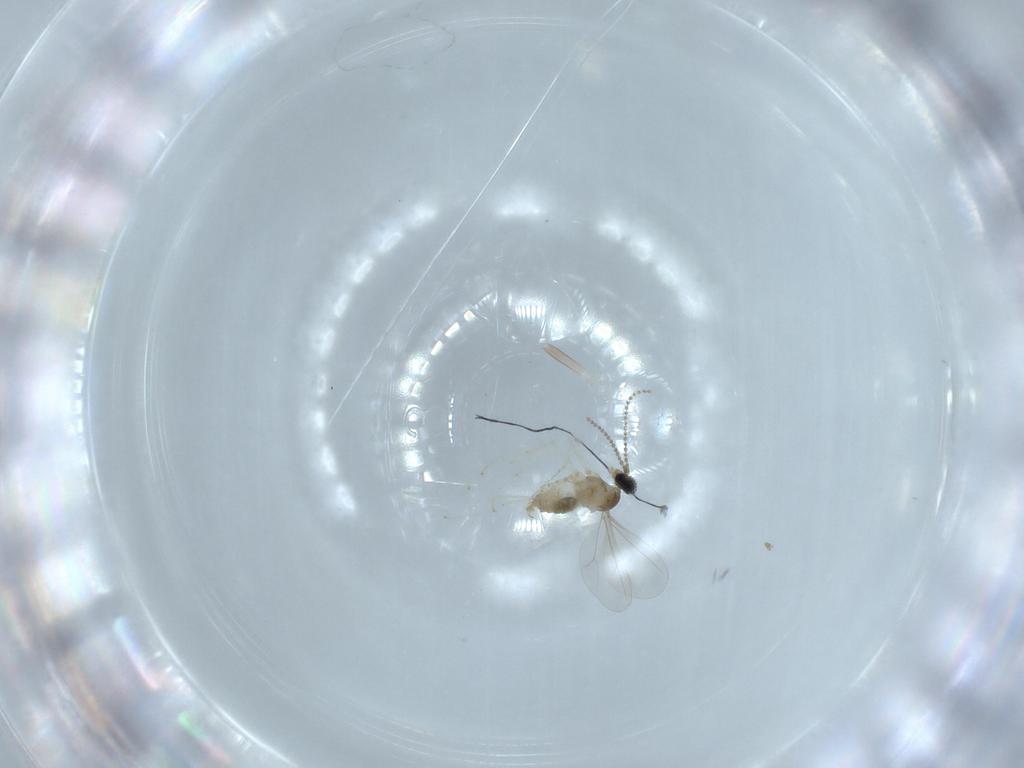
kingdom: Animalia
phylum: Arthropoda
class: Insecta
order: Diptera
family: Cecidomyiidae
